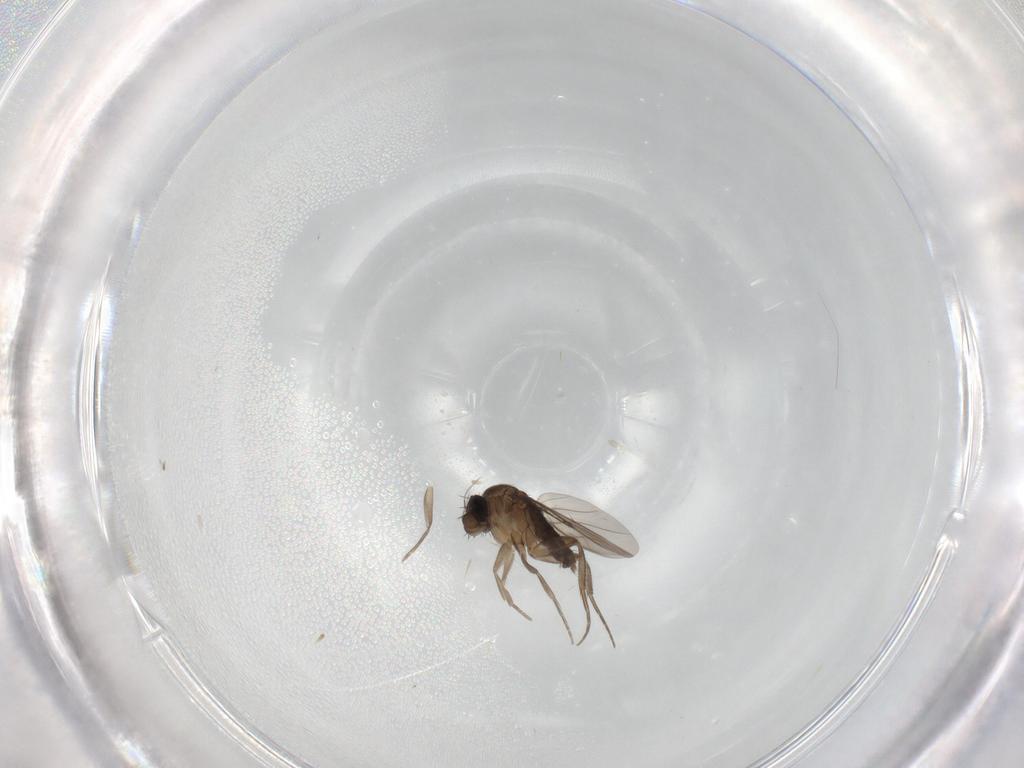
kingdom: Animalia
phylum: Arthropoda
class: Insecta
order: Diptera
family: Phoridae
